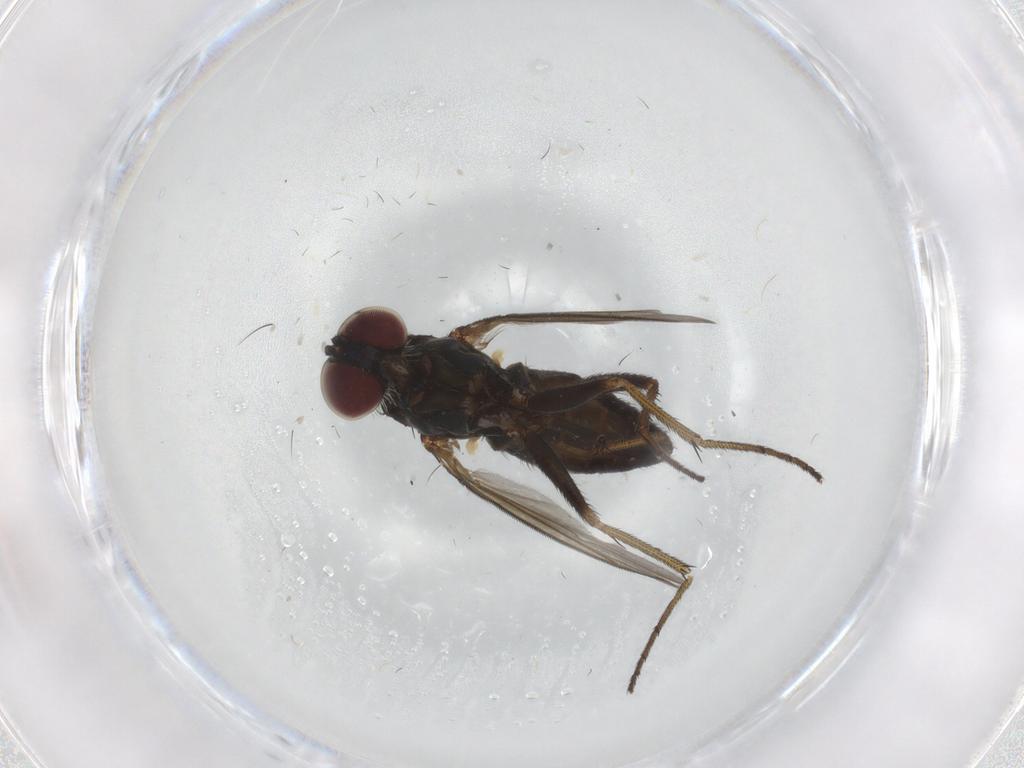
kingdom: Animalia
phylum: Arthropoda
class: Insecta
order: Diptera
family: Dolichopodidae
